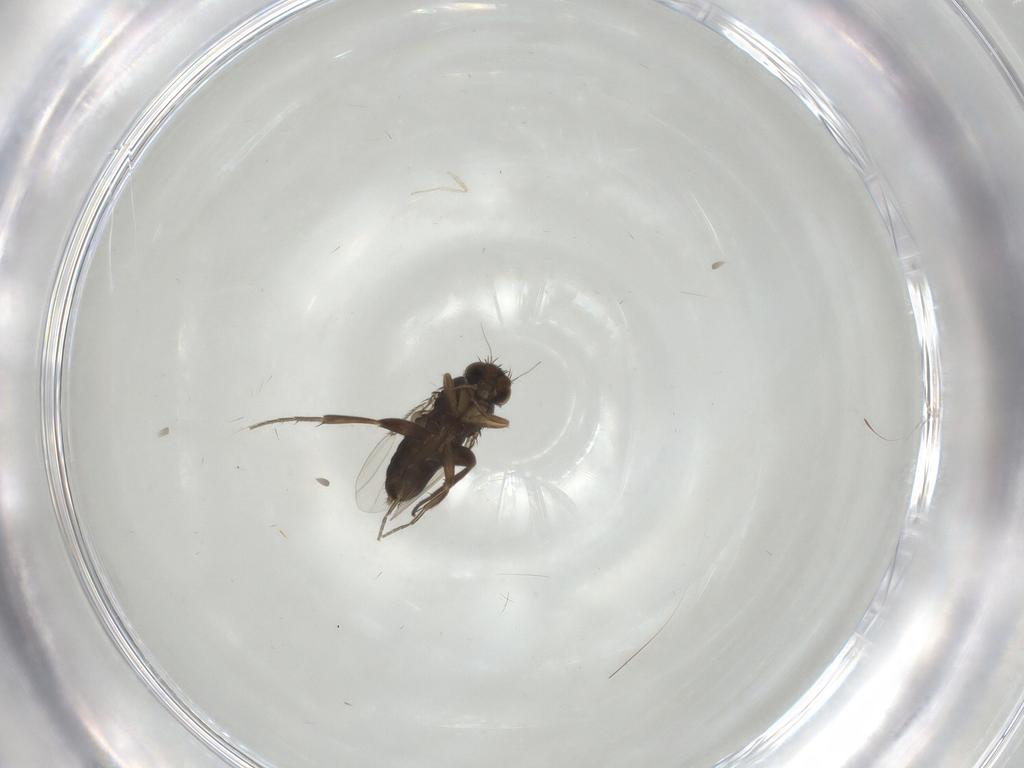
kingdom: Animalia
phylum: Arthropoda
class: Insecta
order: Diptera
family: Phoridae
